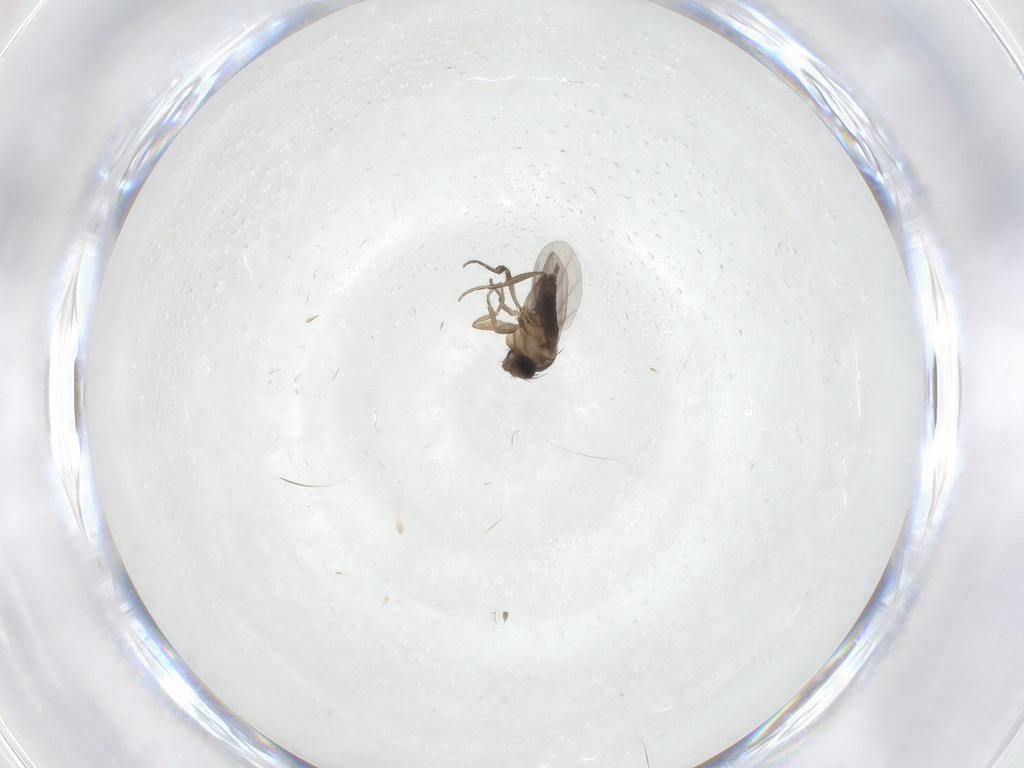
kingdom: Animalia
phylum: Arthropoda
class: Insecta
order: Diptera
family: Phoridae
